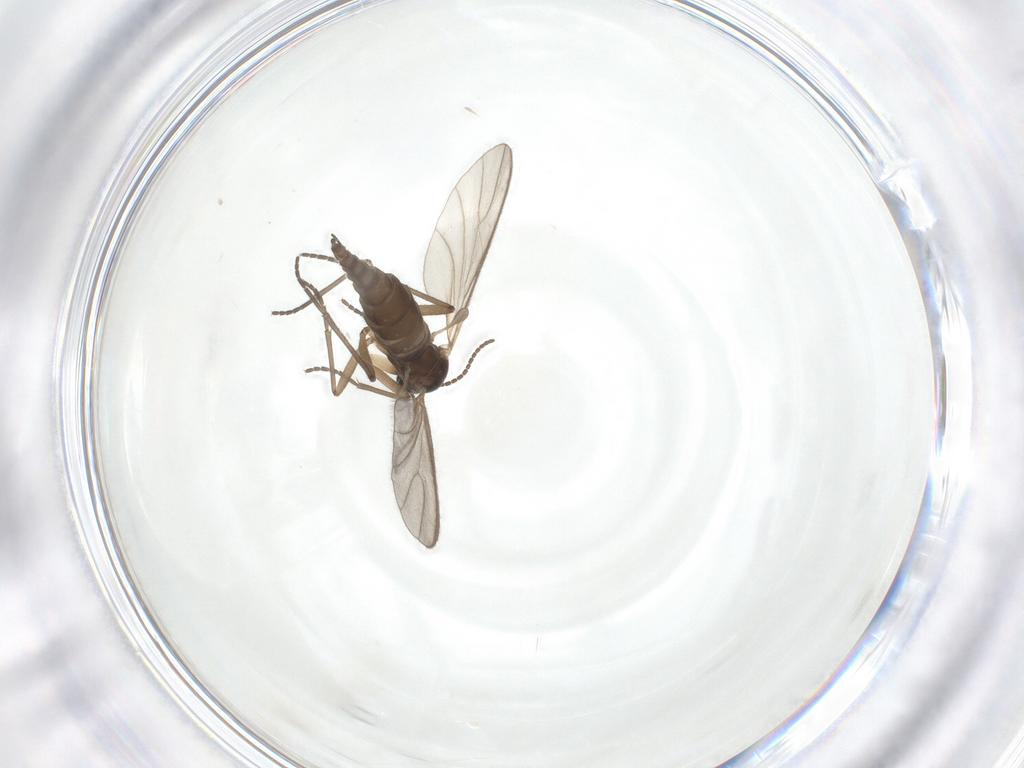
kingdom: Animalia
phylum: Arthropoda
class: Insecta
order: Diptera
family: Sciaridae
